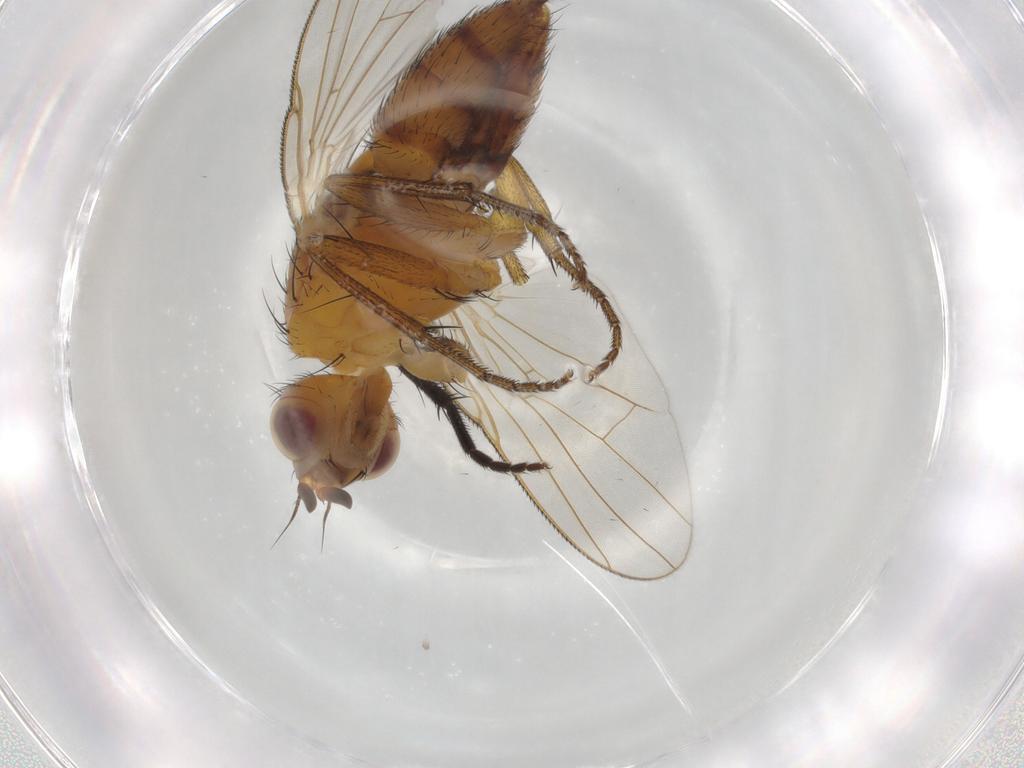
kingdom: Animalia
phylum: Arthropoda
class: Insecta
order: Diptera
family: Muscidae
